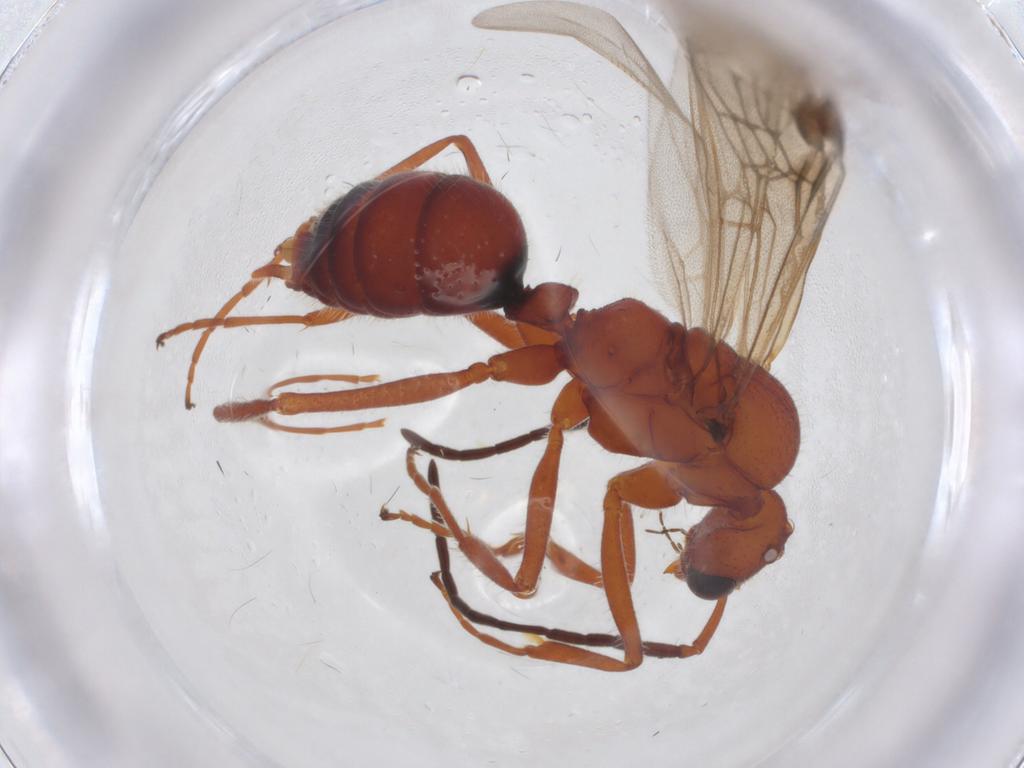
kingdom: Animalia
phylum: Arthropoda
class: Insecta
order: Hymenoptera
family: Formicidae
